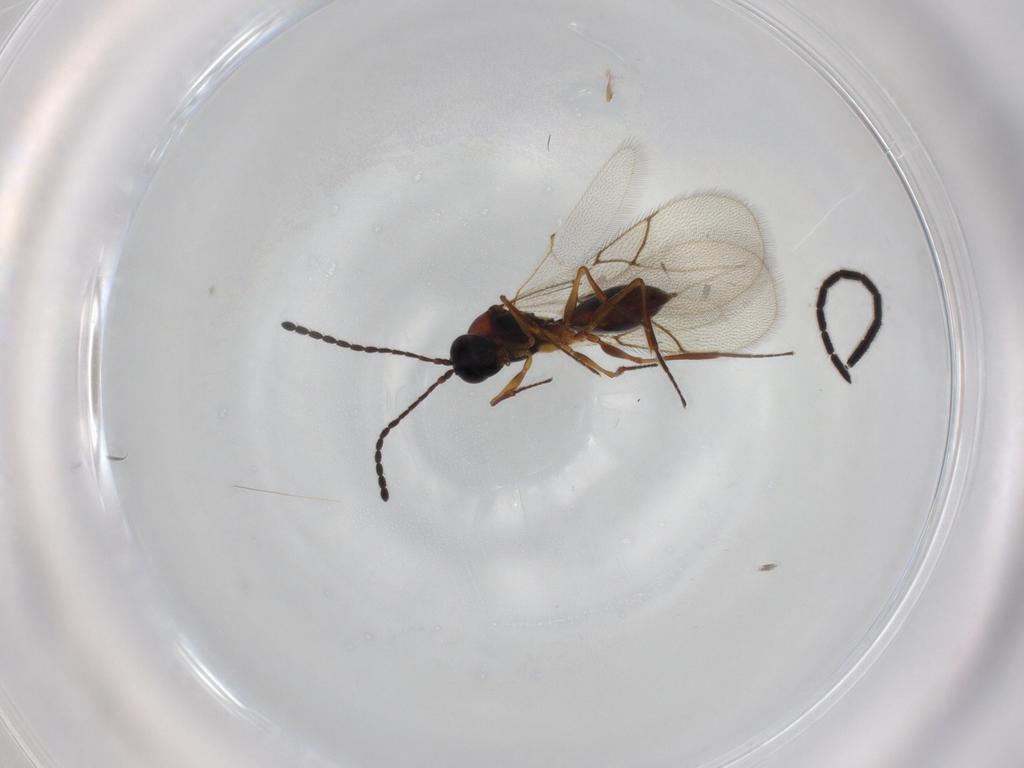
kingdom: Animalia
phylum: Arthropoda
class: Insecta
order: Hymenoptera
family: Proctotrupidae
